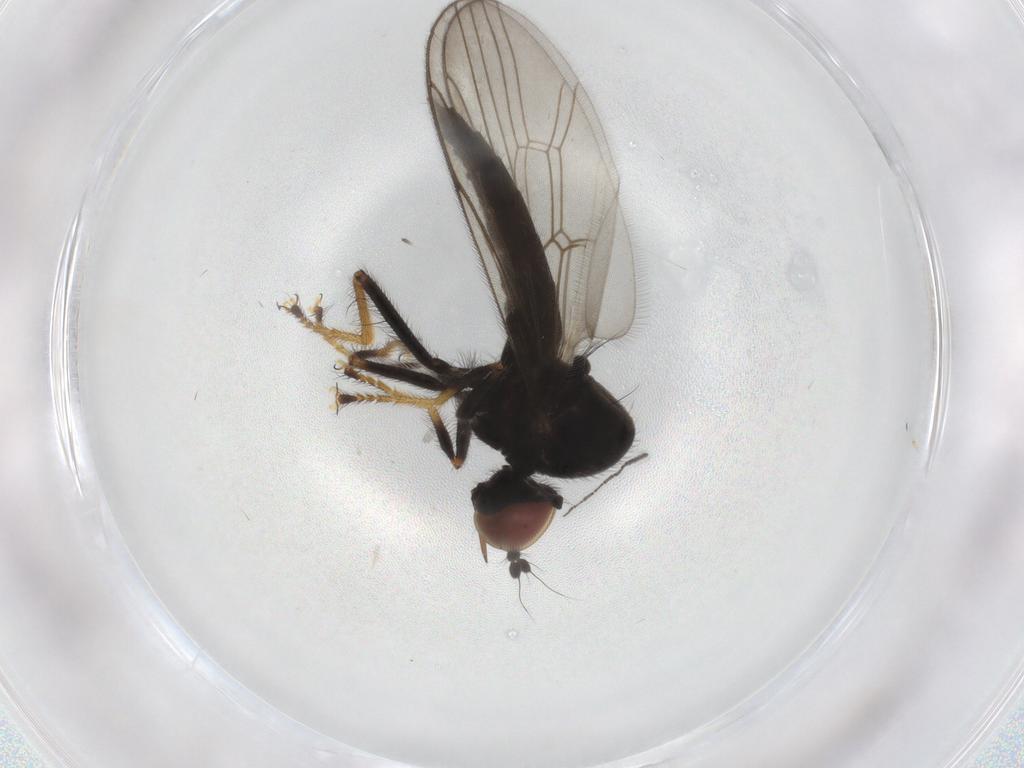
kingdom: Animalia
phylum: Arthropoda
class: Insecta
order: Diptera
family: Hybotidae
